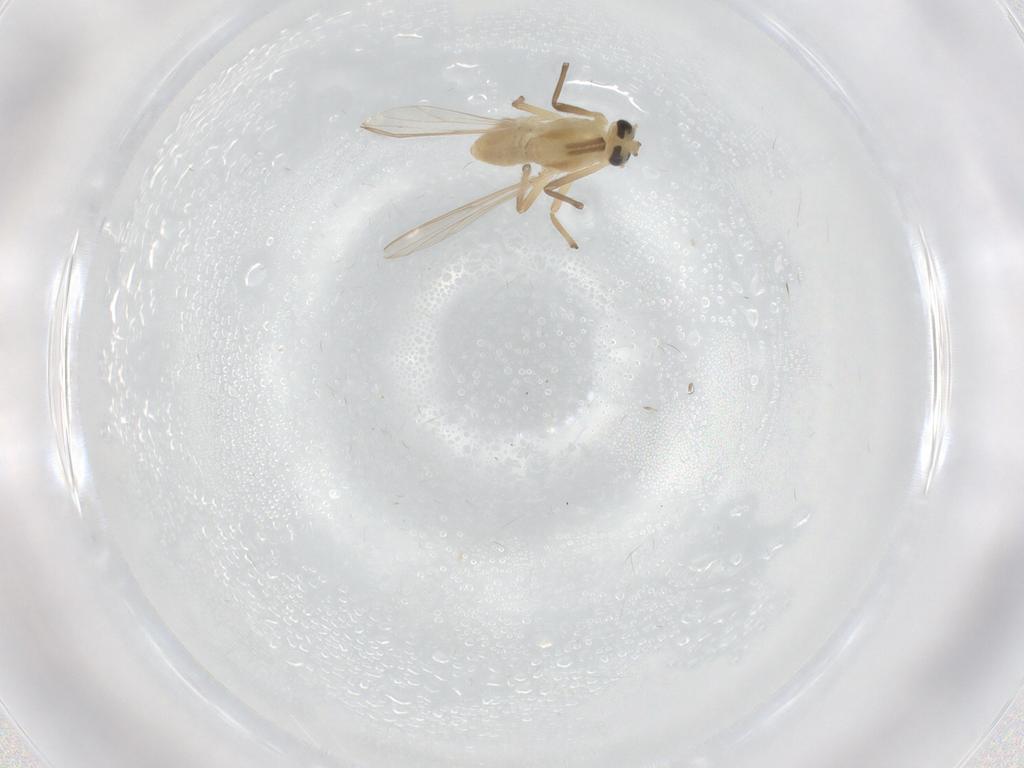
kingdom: Animalia
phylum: Arthropoda
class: Insecta
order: Diptera
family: Chironomidae
